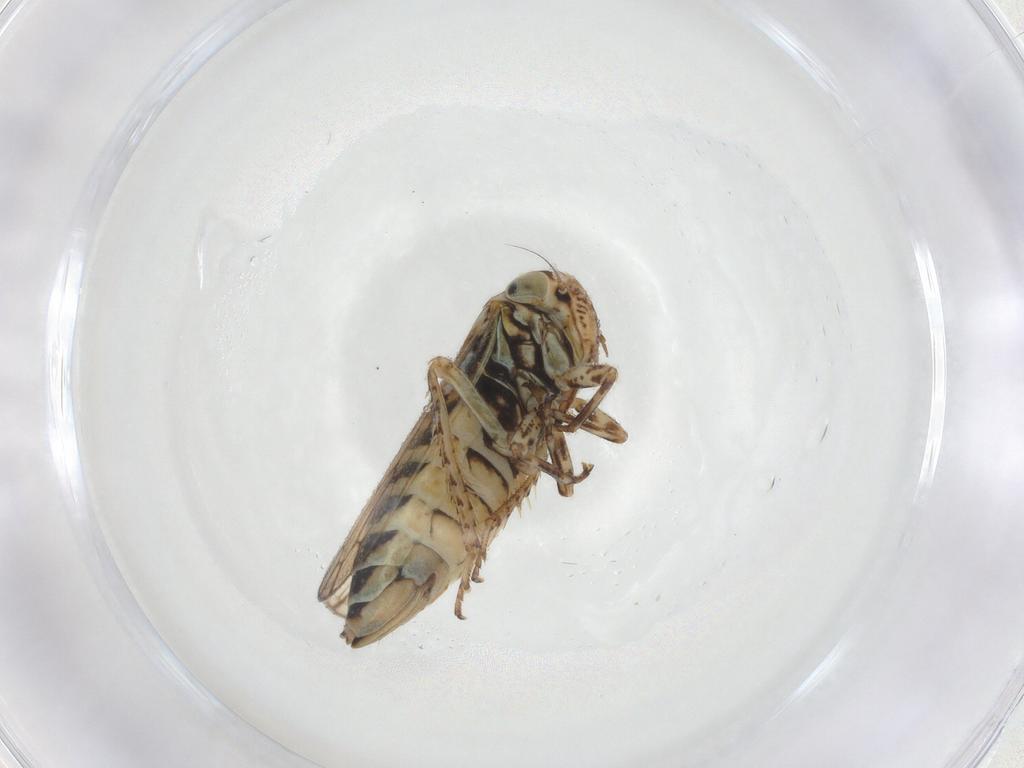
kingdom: Animalia
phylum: Arthropoda
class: Insecta
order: Hemiptera
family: Cicadellidae
